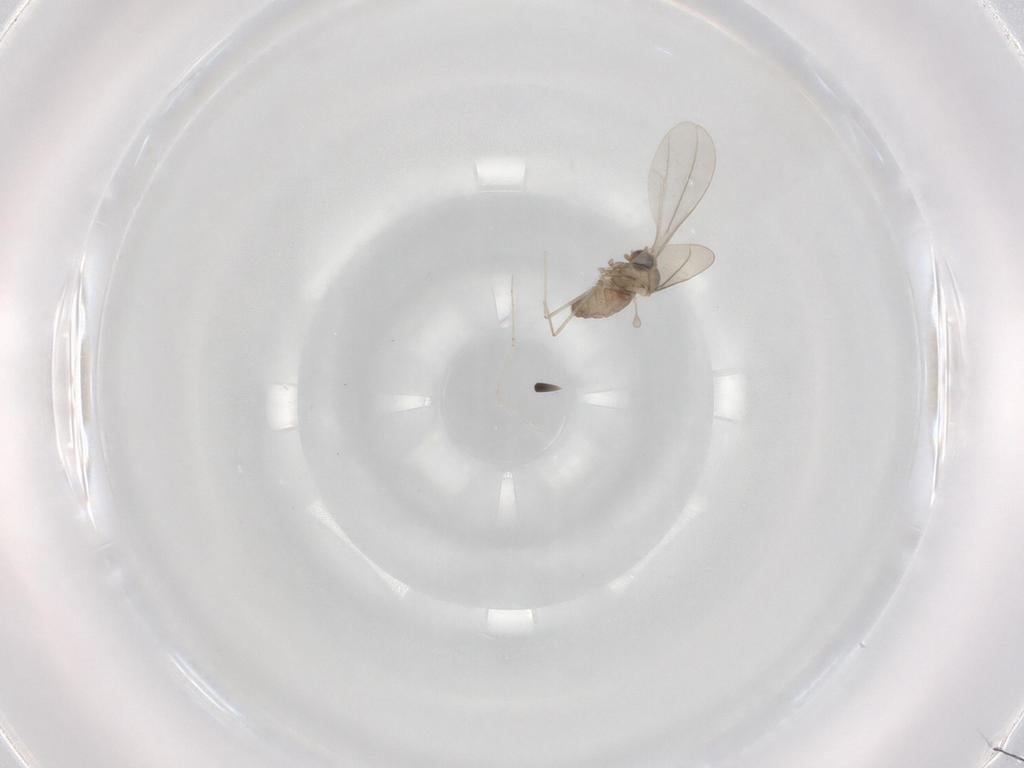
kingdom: Animalia
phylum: Arthropoda
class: Insecta
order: Diptera
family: Cecidomyiidae
